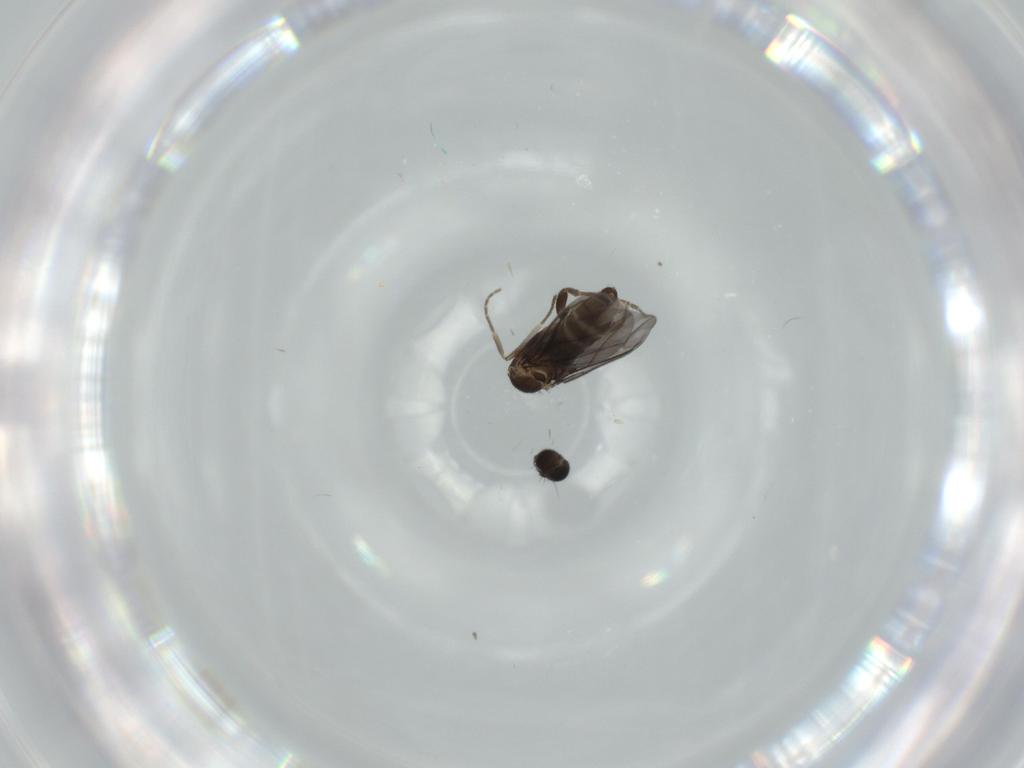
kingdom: Animalia
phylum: Arthropoda
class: Insecta
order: Diptera
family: Phoridae
